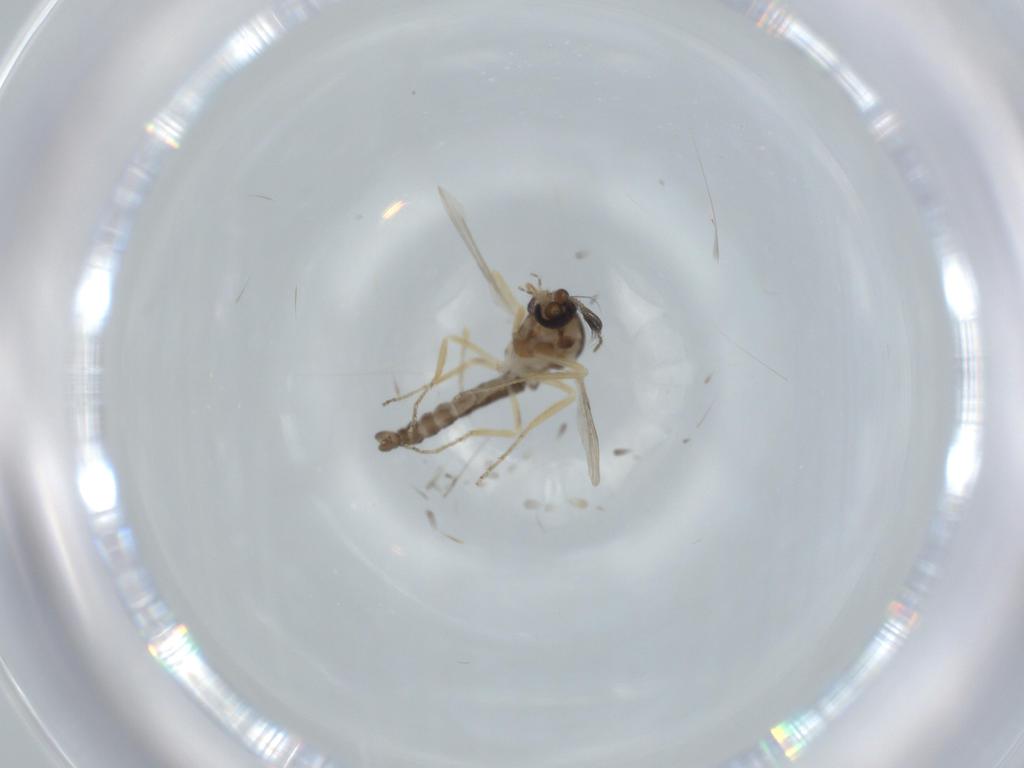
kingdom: Animalia
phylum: Arthropoda
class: Insecta
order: Diptera
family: Ceratopogonidae
